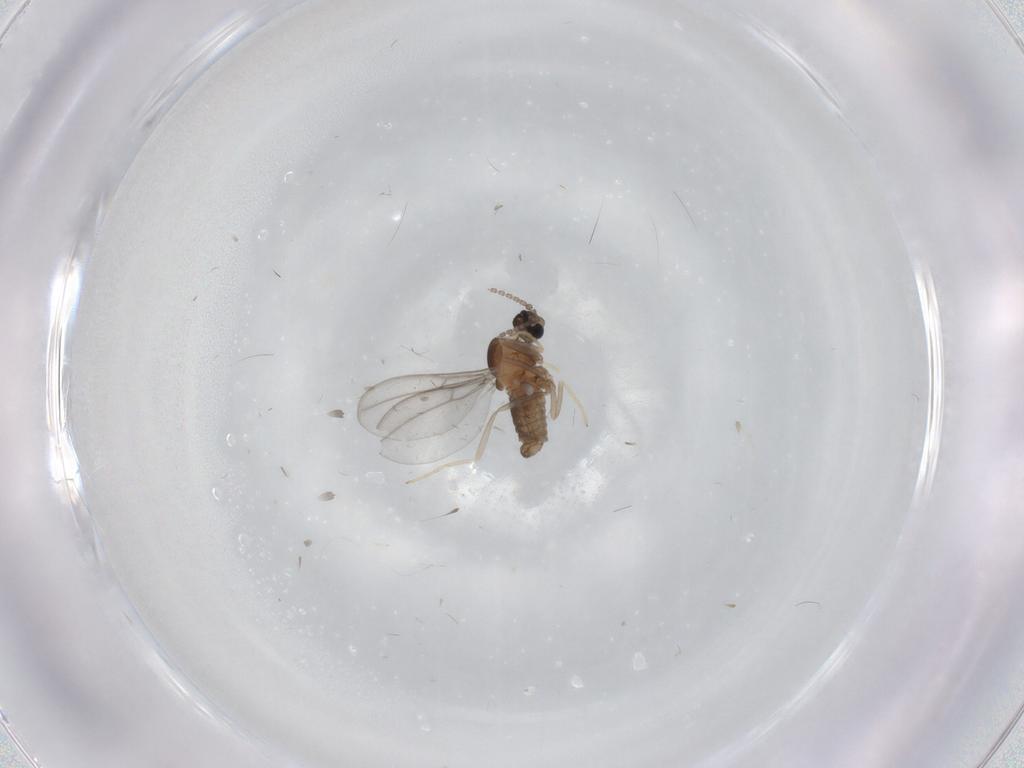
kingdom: Animalia
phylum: Arthropoda
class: Insecta
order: Diptera
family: Cecidomyiidae
